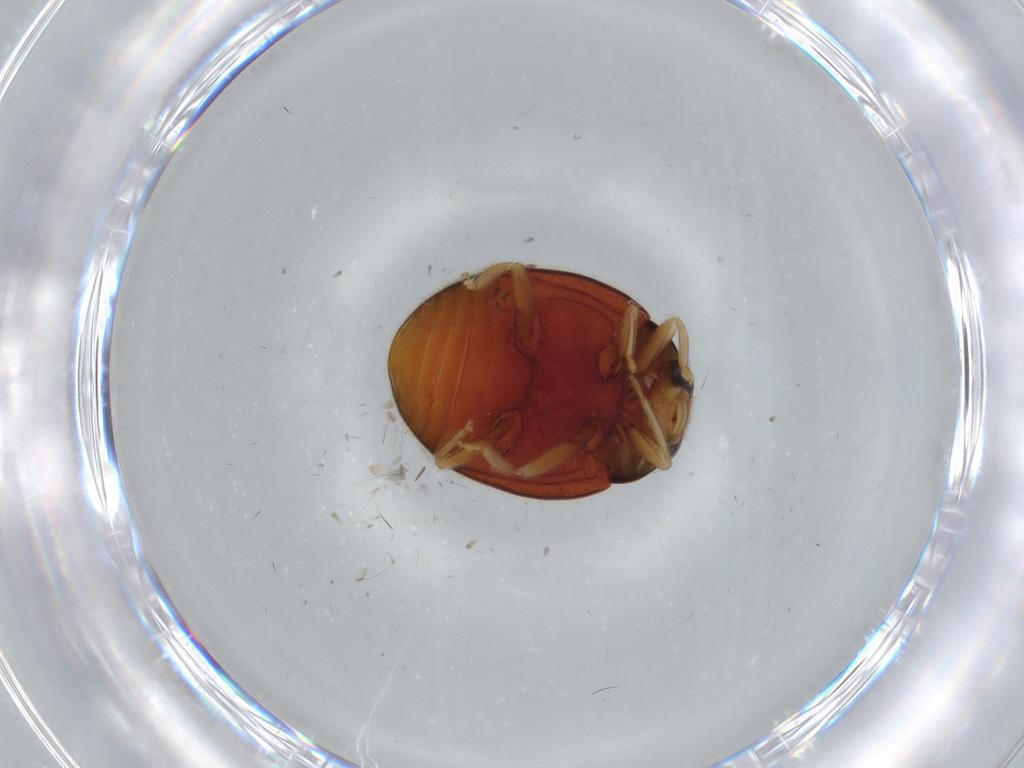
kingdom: Animalia
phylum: Arthropoda
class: Insecta
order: Coleoptera
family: Coccinellidae
